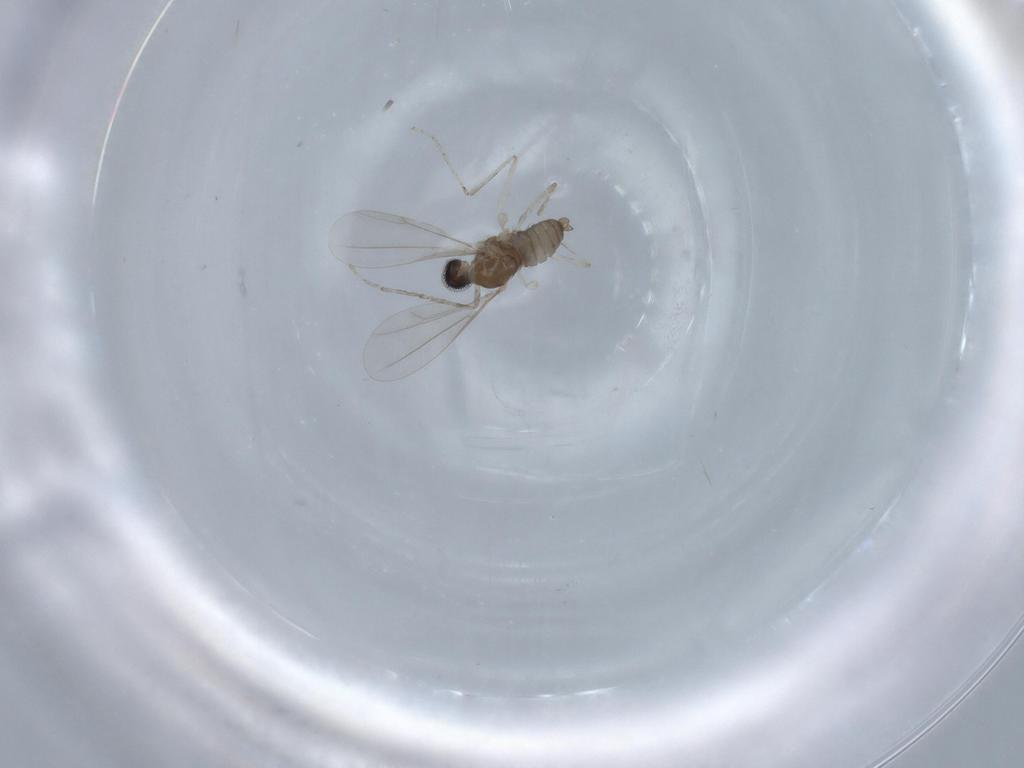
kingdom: Animalia
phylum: Arthropoda
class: Insecta
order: Diptera
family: Cecidomyiidae
